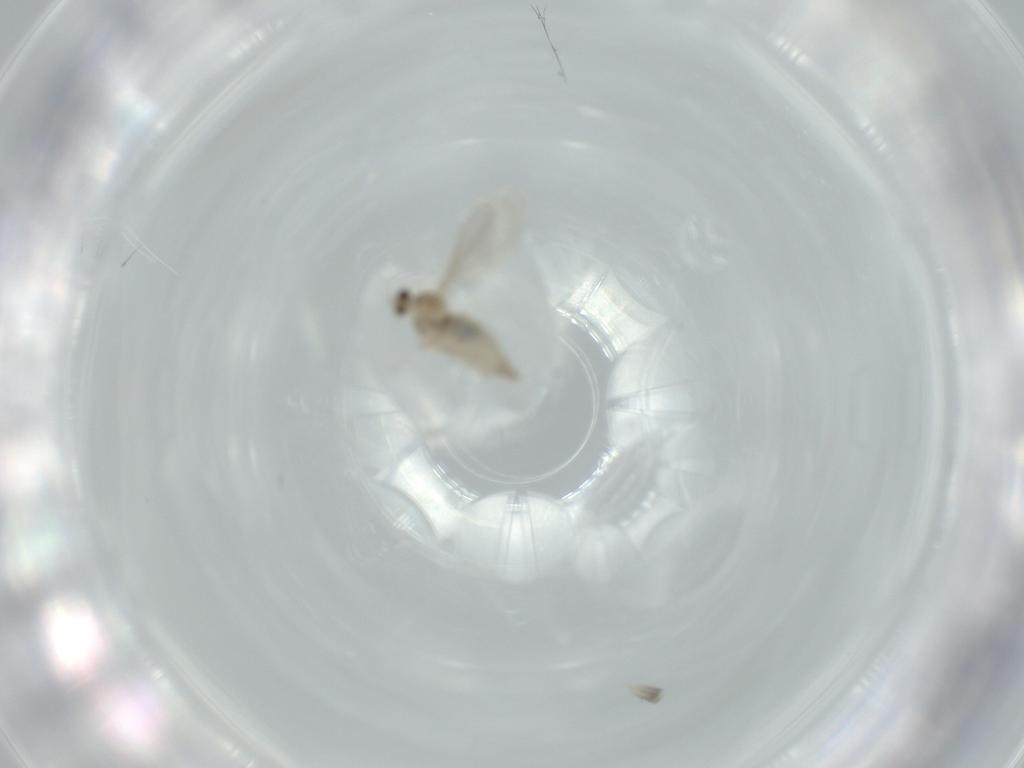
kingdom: Animalia
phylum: Arthropoda
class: Insecta
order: Diptera
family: Cecidomyiidae
